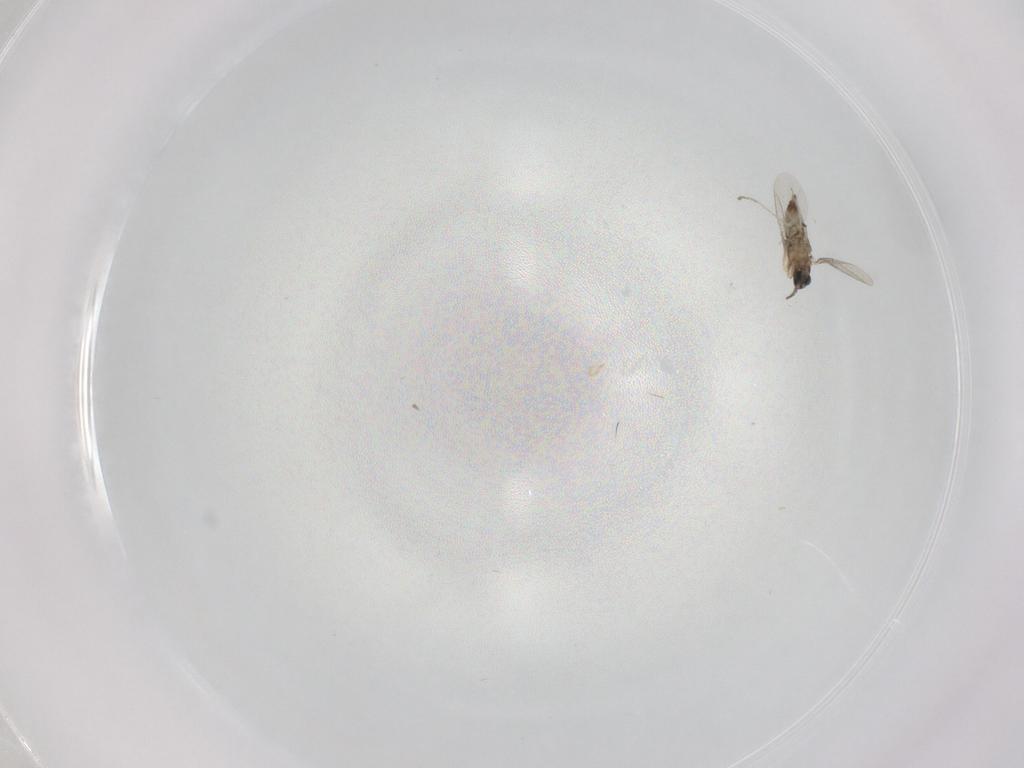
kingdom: Animalia
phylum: Arthropoda
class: Insecta
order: Diptera
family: Cecidomyiidae
